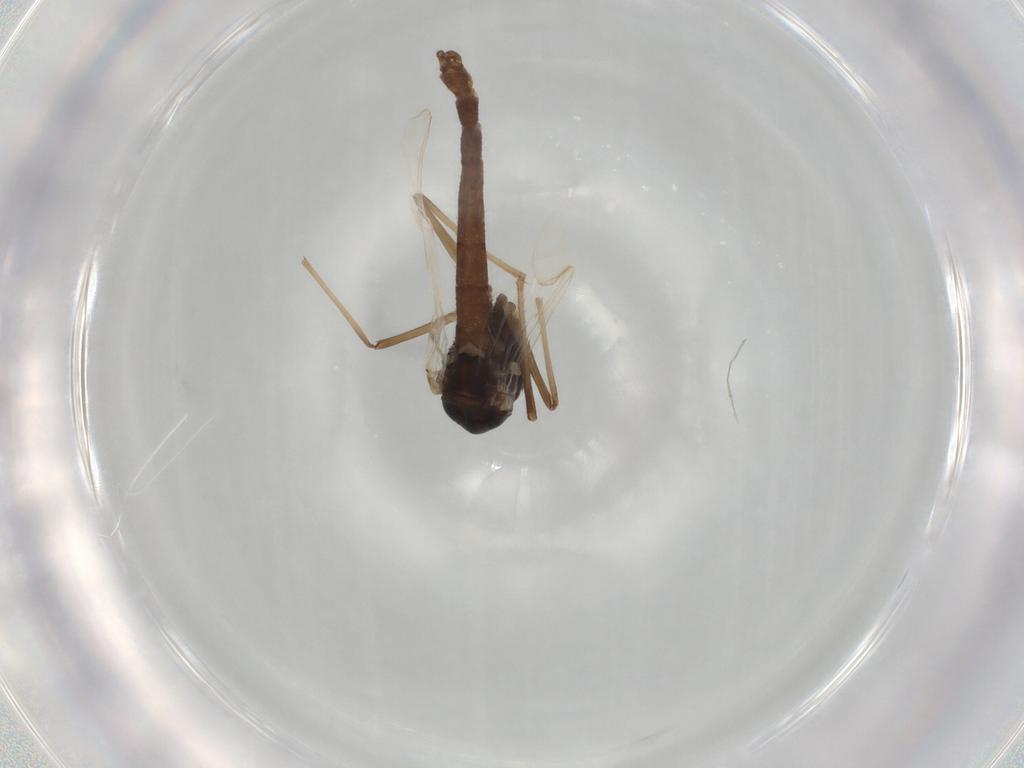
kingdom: Animalia
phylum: Arthropoda
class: Insecta
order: Diptera
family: Chironomidae
